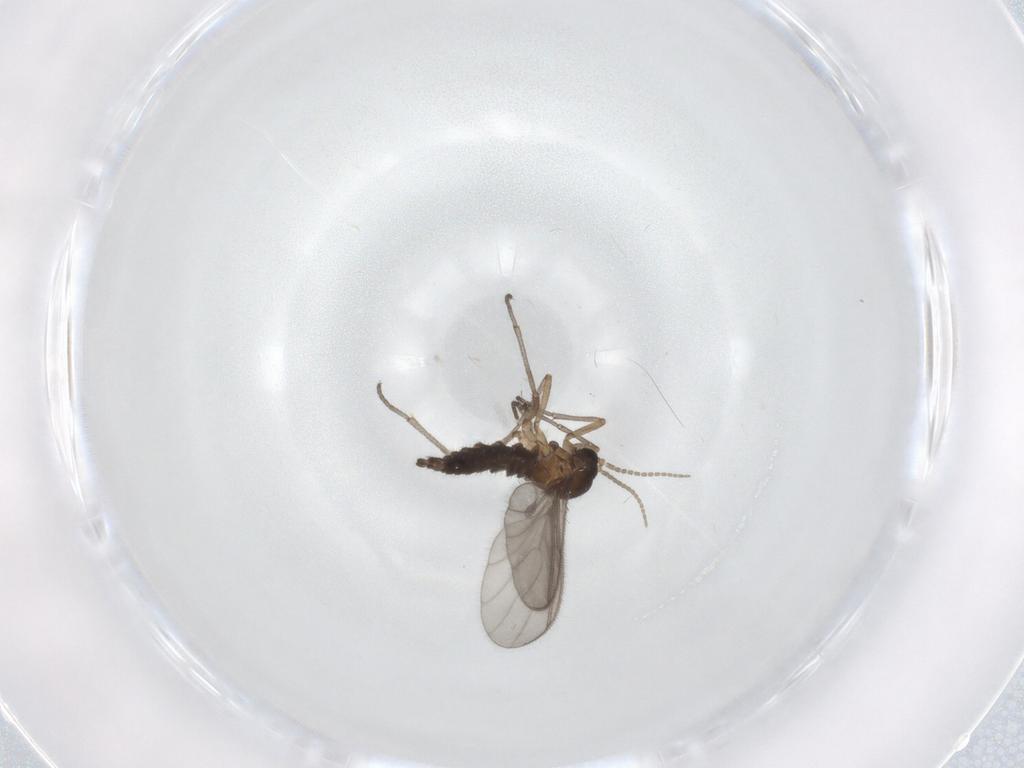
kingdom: Animalia
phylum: Arthropoda
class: Insecta
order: Diptera
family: Sciaridae
